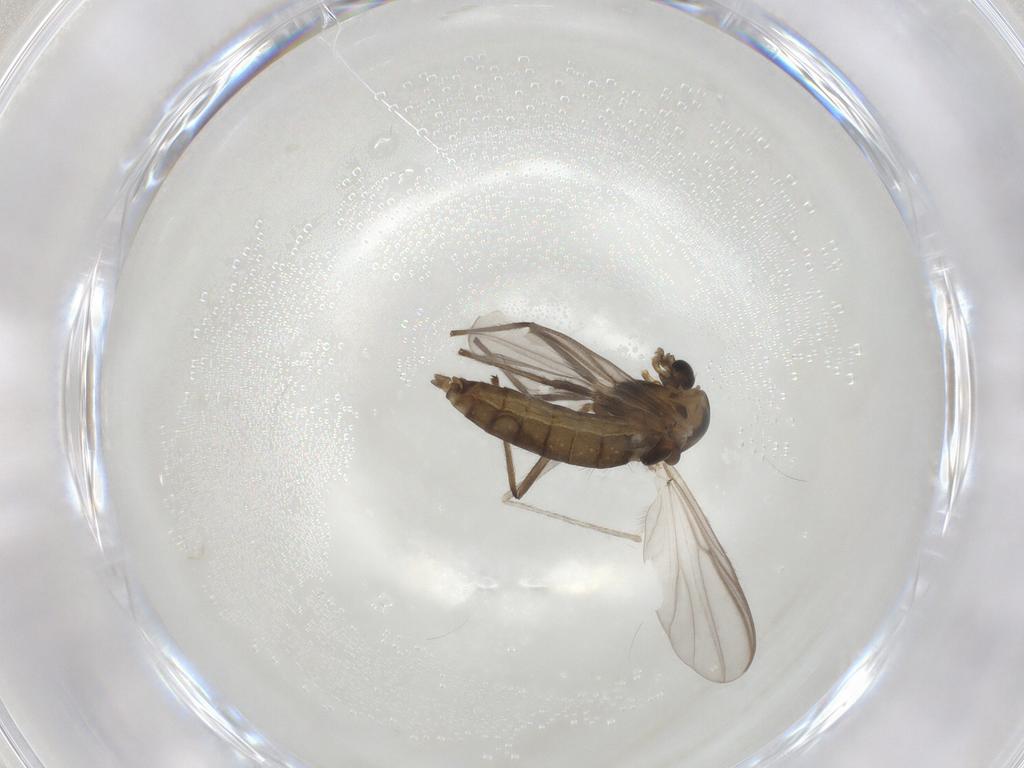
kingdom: Animalia
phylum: Arthropoda
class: Insecta
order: Diptera
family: Chironomidae
